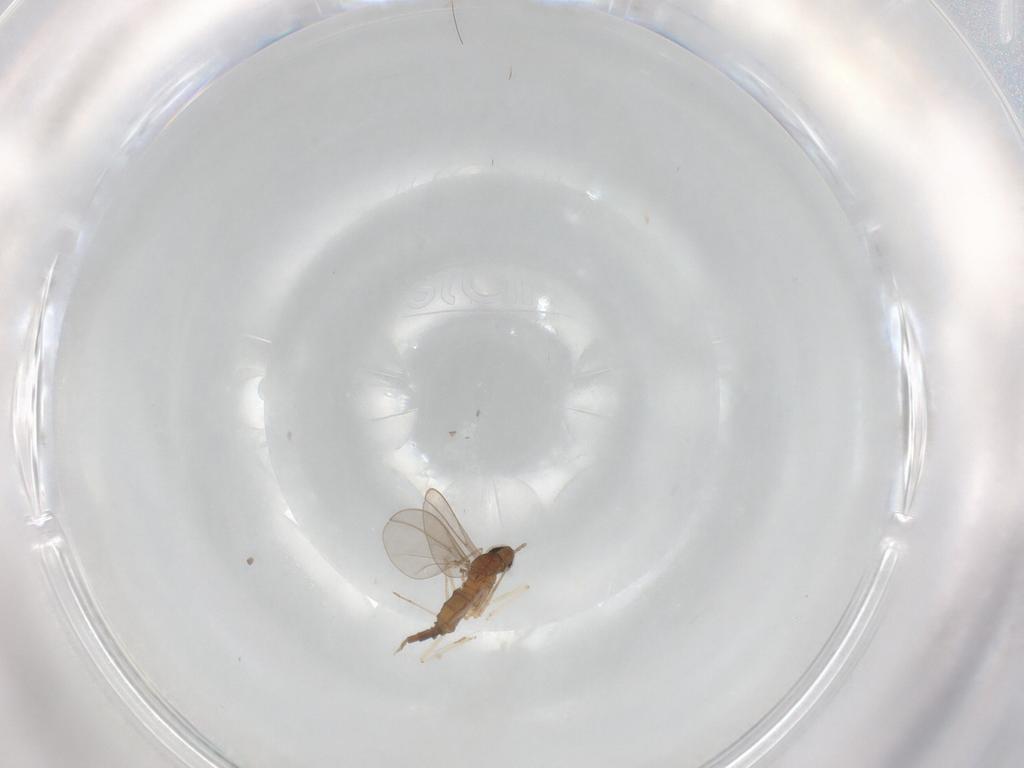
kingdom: Animalia
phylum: Arthropoda
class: Insecta
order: Diptera
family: Cecidomyiidae
